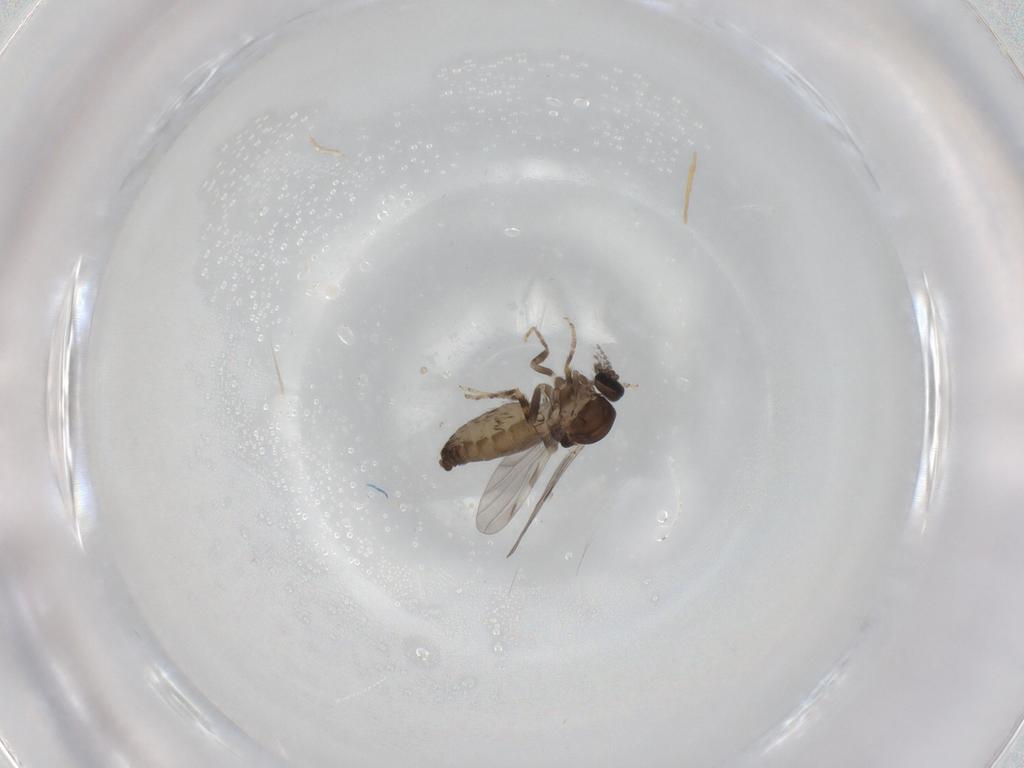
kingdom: Animalia
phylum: Arthropoda
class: Insecta
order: Diptera
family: Ceratopogonidae
